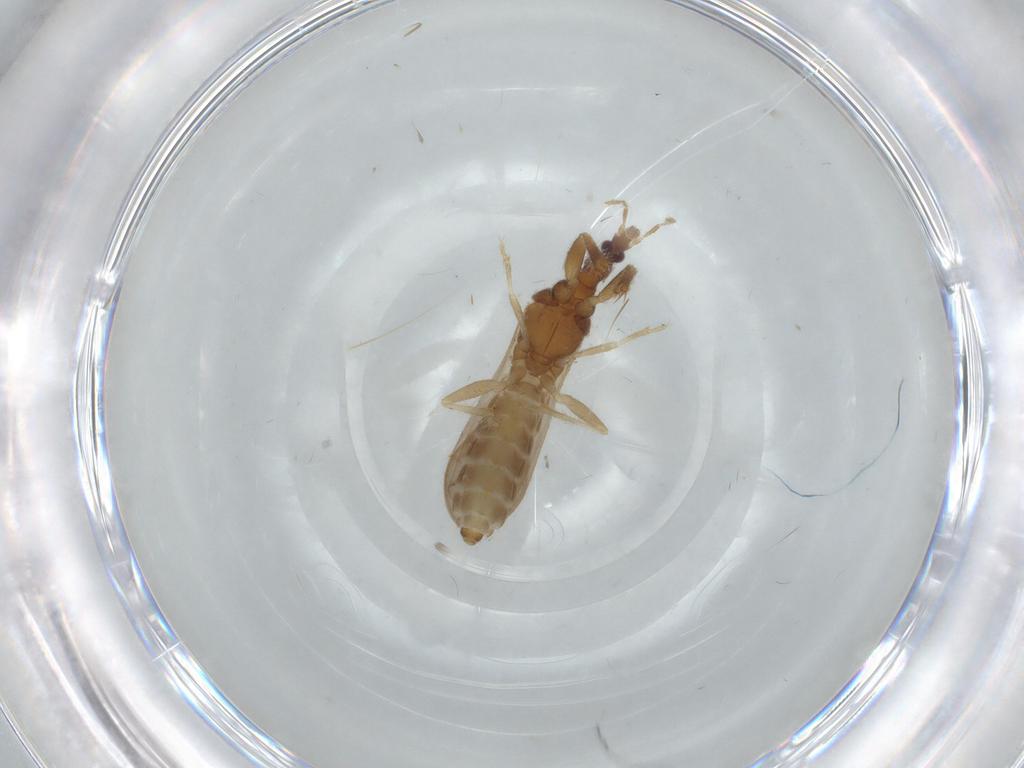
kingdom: Animalia
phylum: Arthropoda
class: Insecta
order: Hemiptera
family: Enicocephalidae
